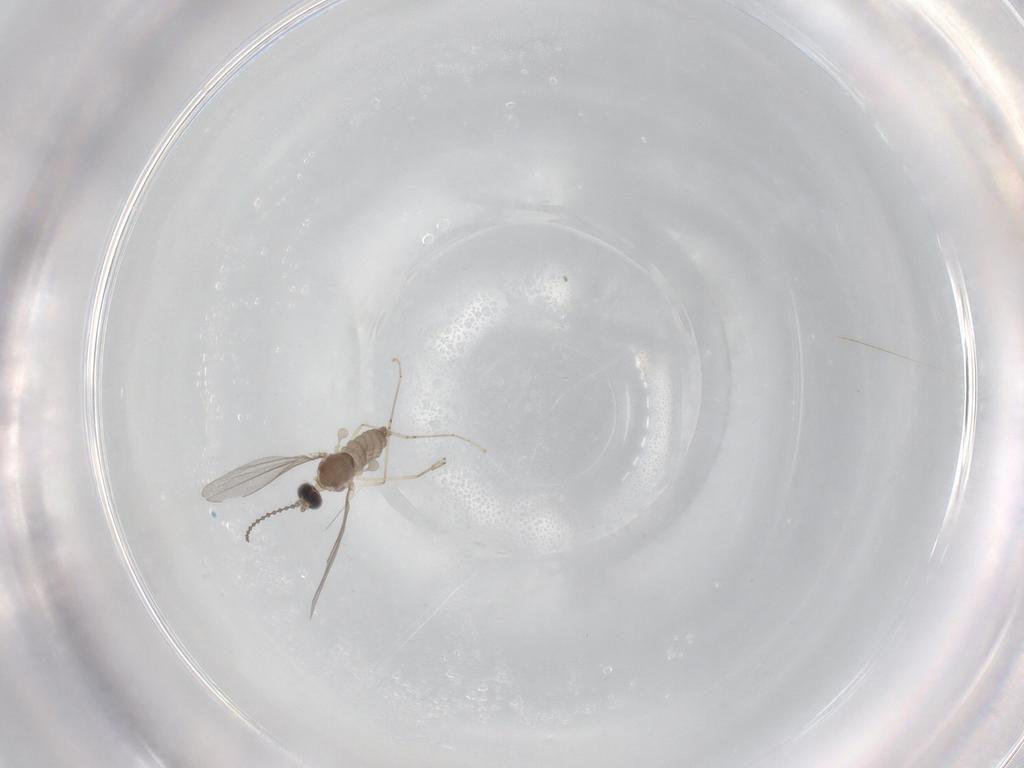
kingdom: Animalia
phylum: Arthropoda
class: Insecta
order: Diptera
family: Cecidomyiidae
